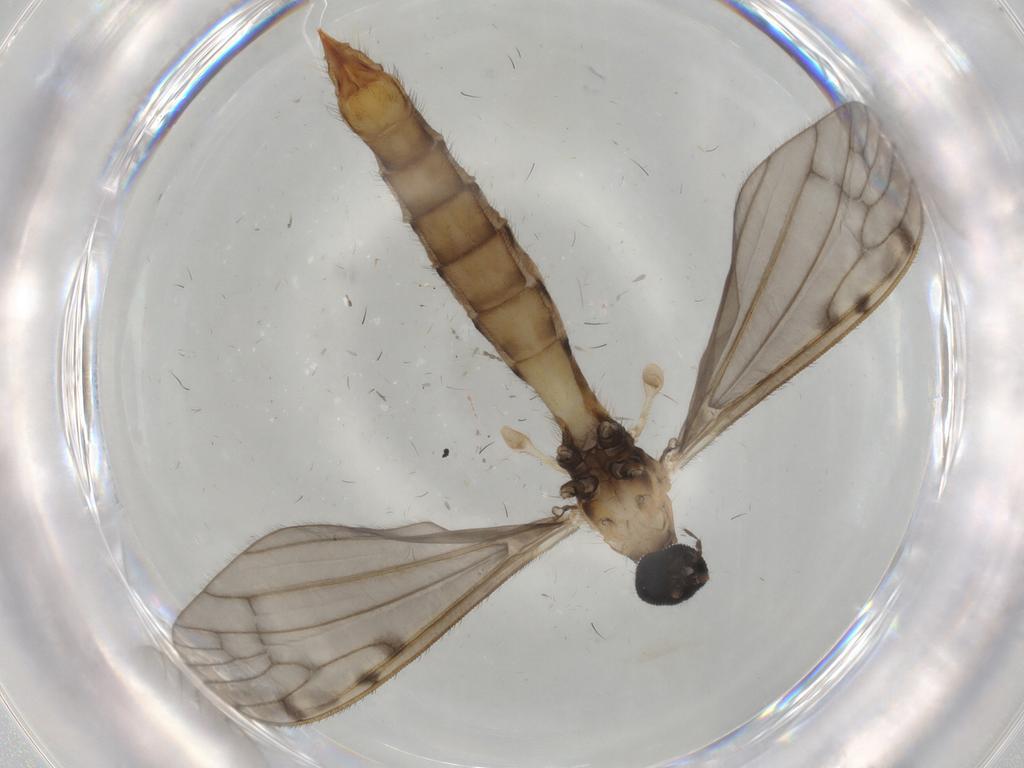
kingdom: Animalia
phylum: Arthropoda
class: Insecta
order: Diptera
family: Sciaridae
